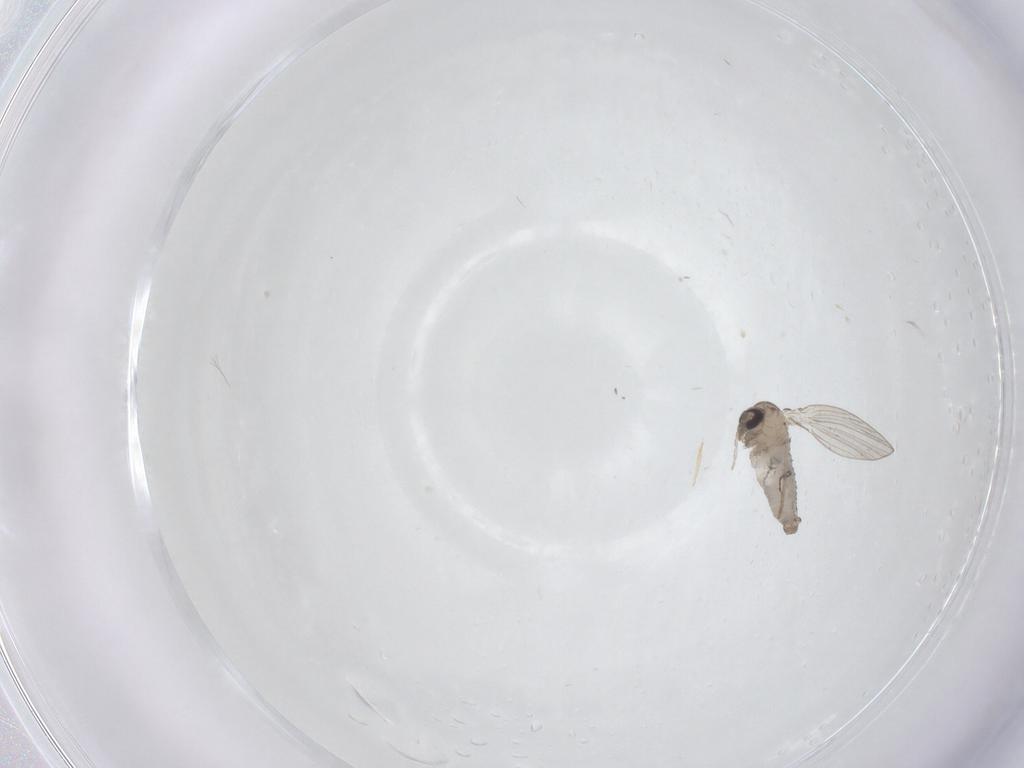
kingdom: Animalia
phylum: Arthropoda
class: Insecta
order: Diptera
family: Psychodidae
